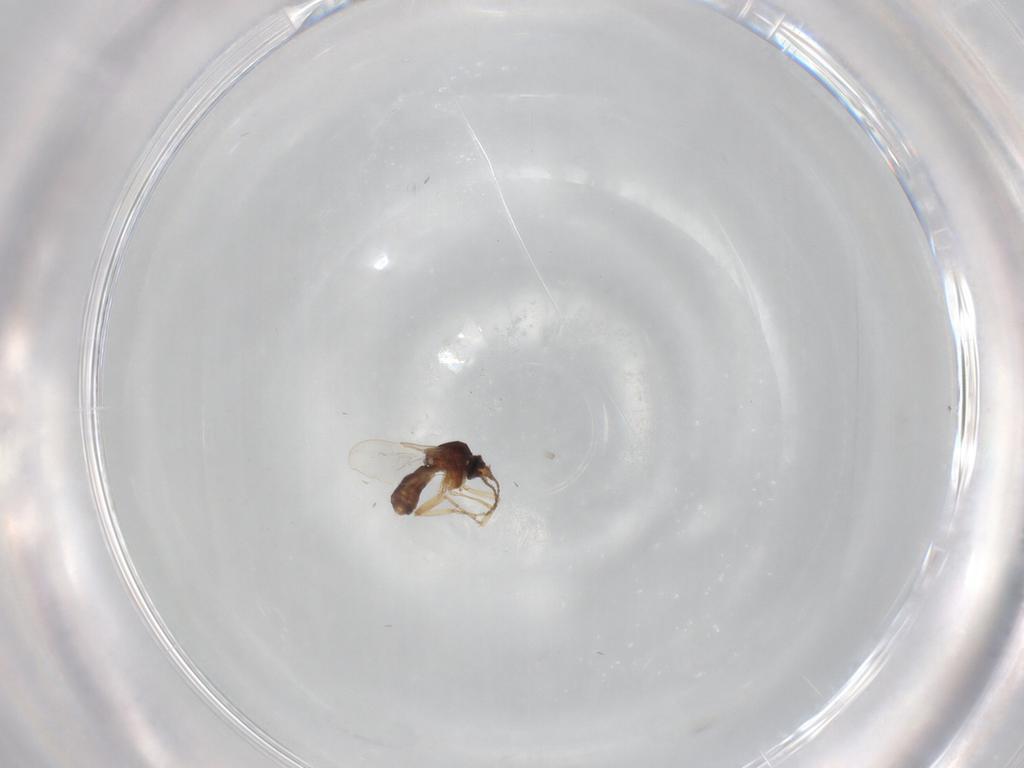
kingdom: Animalia
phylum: Arthropoda
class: Insecta
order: Diptera
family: Ceratopogonidae
